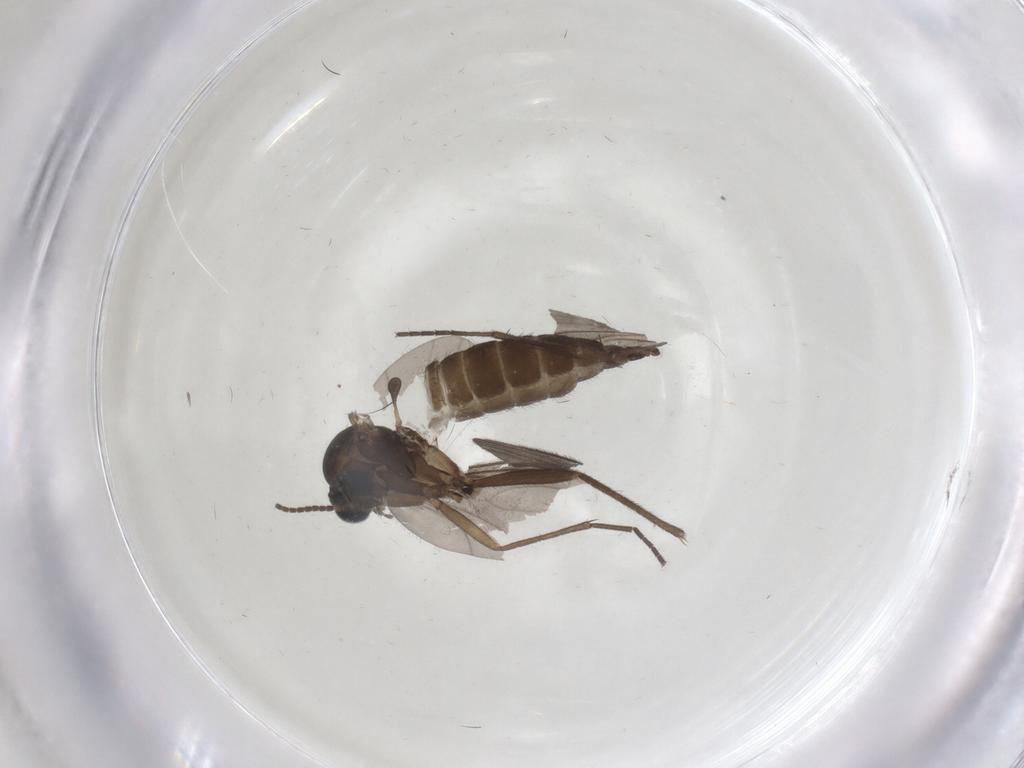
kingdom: Animalia
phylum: Arthropoda
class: Insecta
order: Diptera
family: Sciaridae
